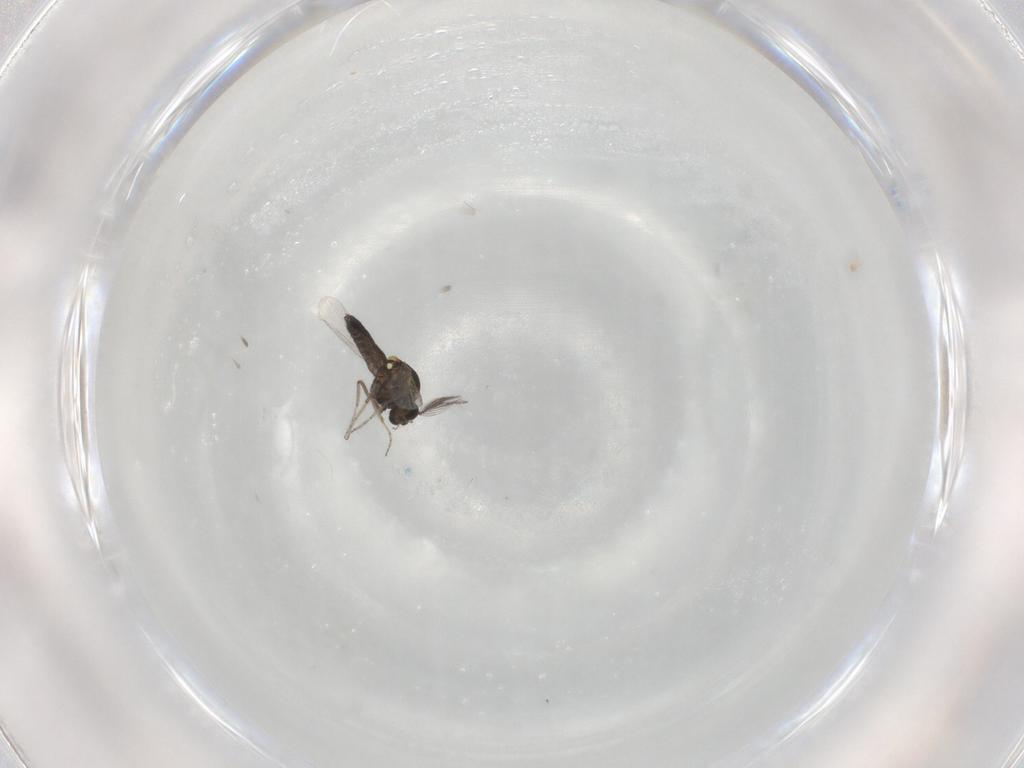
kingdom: Animalia
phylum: Arthropoda
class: Insecta
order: Diptera
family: Ceratopogonidae
